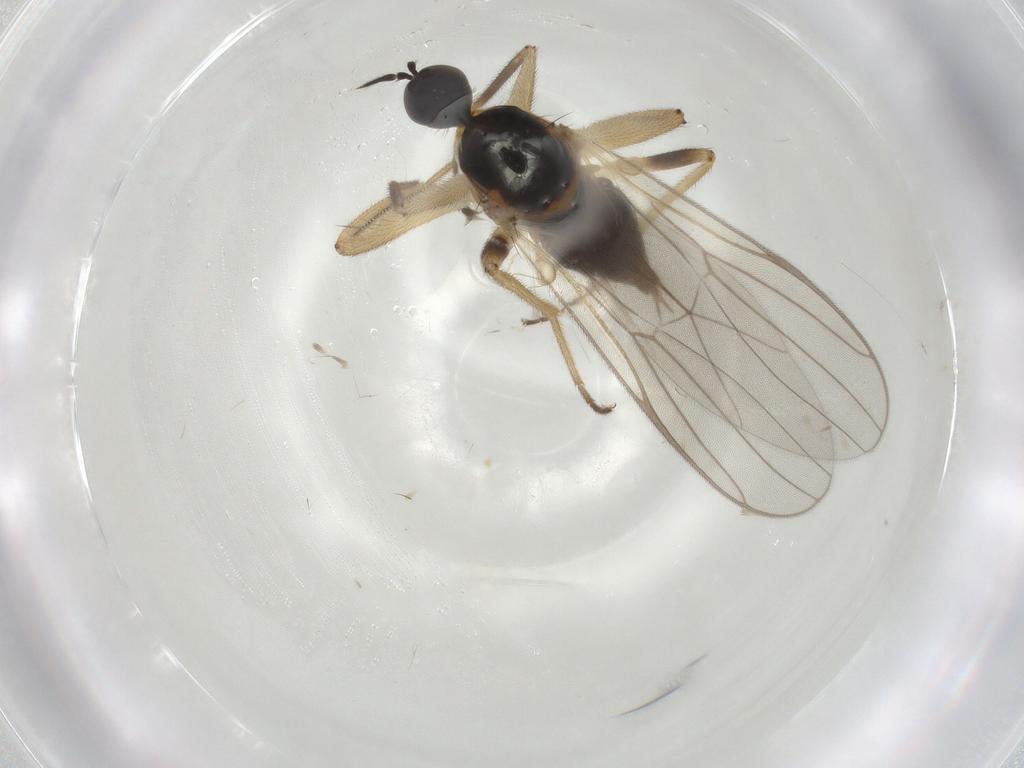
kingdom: Animalia
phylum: Arthropoda
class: Insecta
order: Diptera
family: Hybotidae
